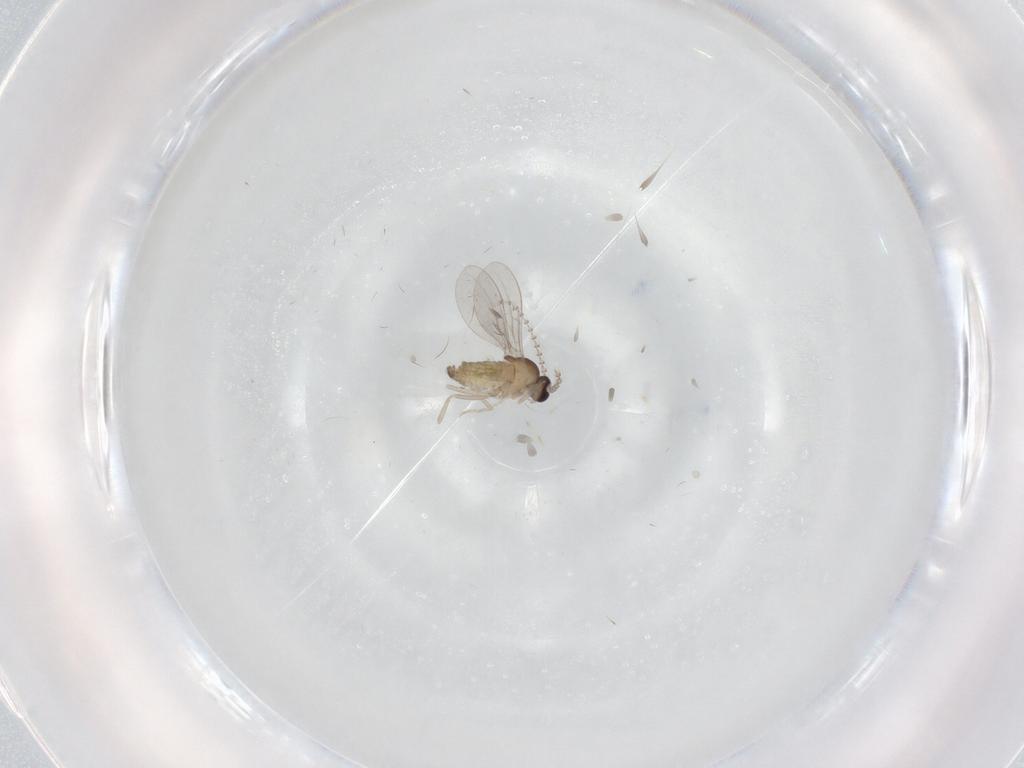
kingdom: Animalia
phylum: Arthropoda
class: Insecta
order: Diptera
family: Cecidomyiidae
